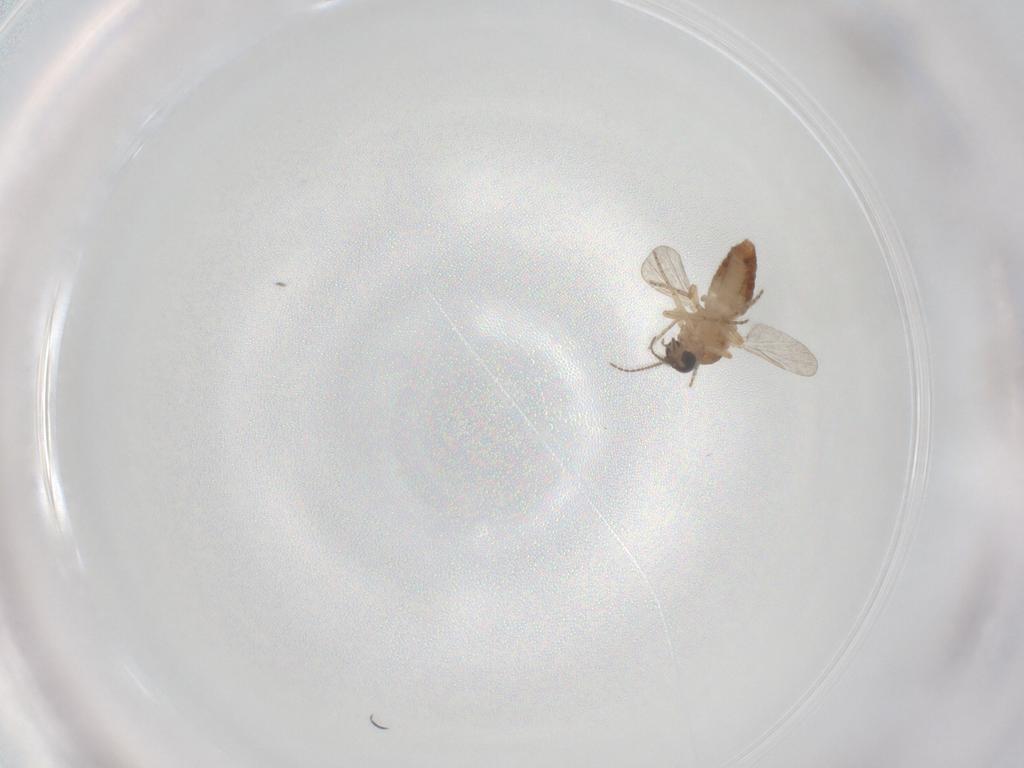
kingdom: Animalia
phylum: Arthropoda
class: Insecta
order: Diptera
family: Ceratopogonidae
